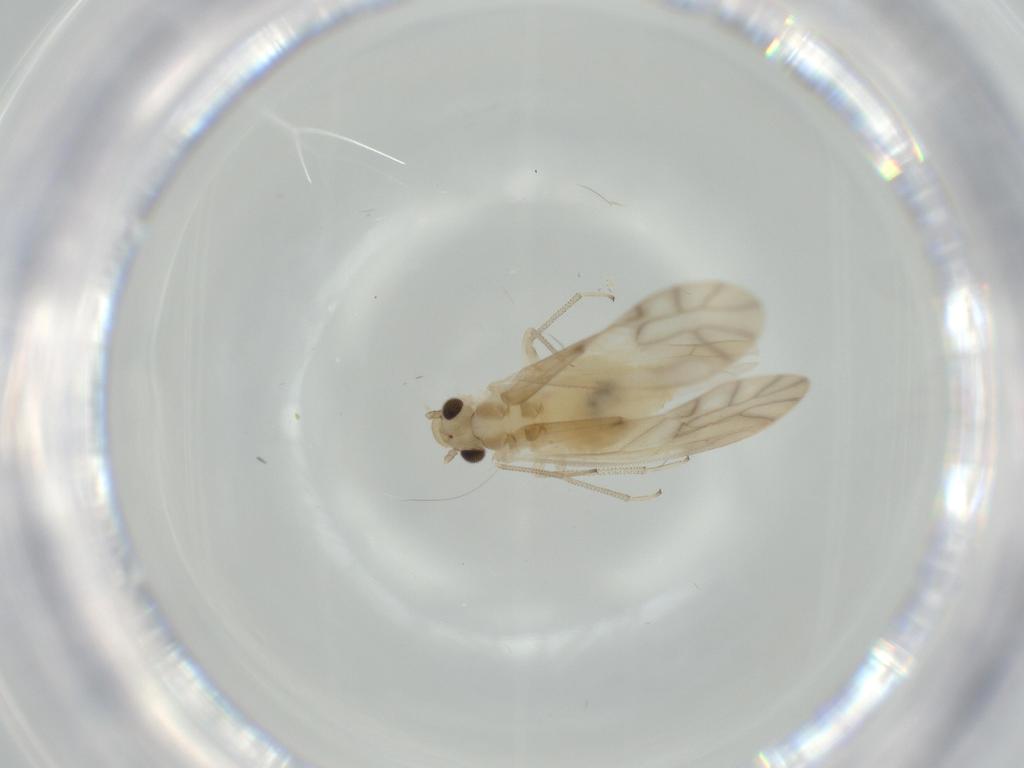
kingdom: Animalia
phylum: Arthropoda
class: Insecta
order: Psocodea
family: Caeciliusidae
